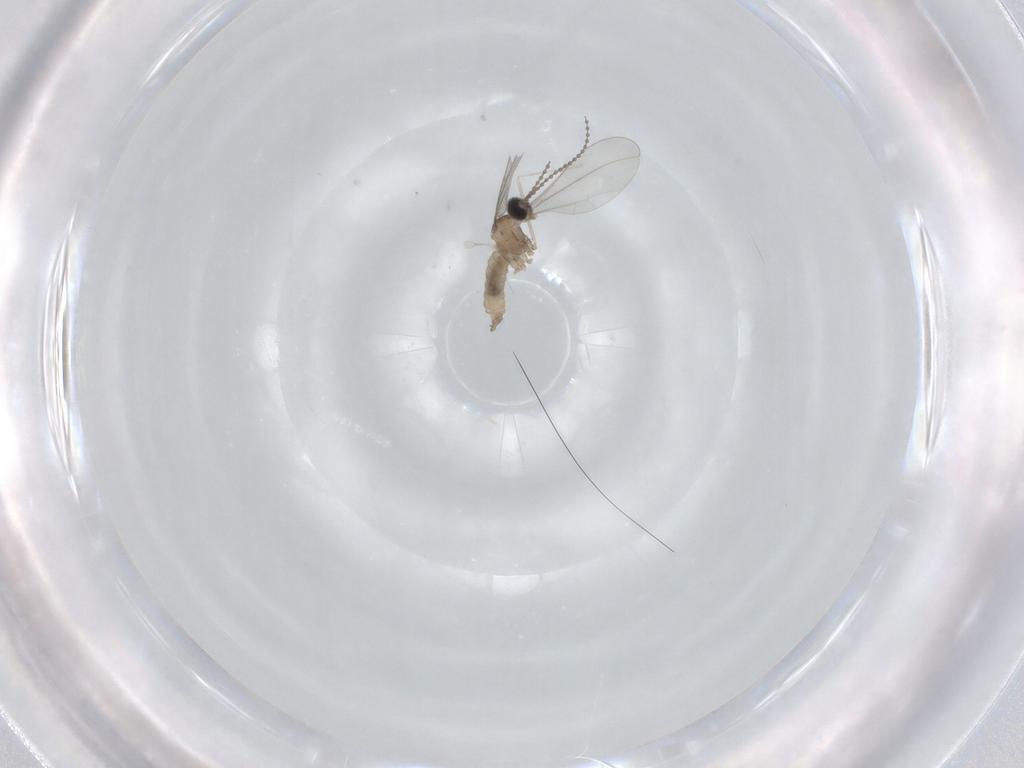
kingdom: Animalia
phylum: Arthropoda
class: Insecta
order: Diptera
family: Cecidomyiidae
